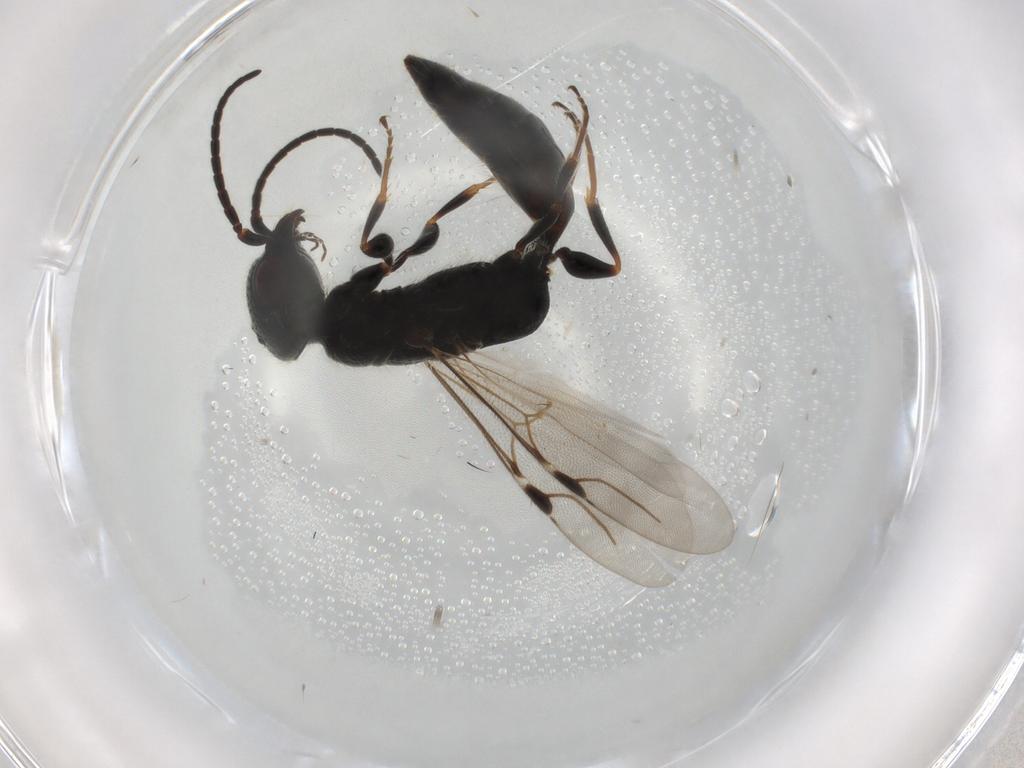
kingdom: Animalia
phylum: Arthropoda
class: Insecta
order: Hymenoptera
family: Bethylidae
